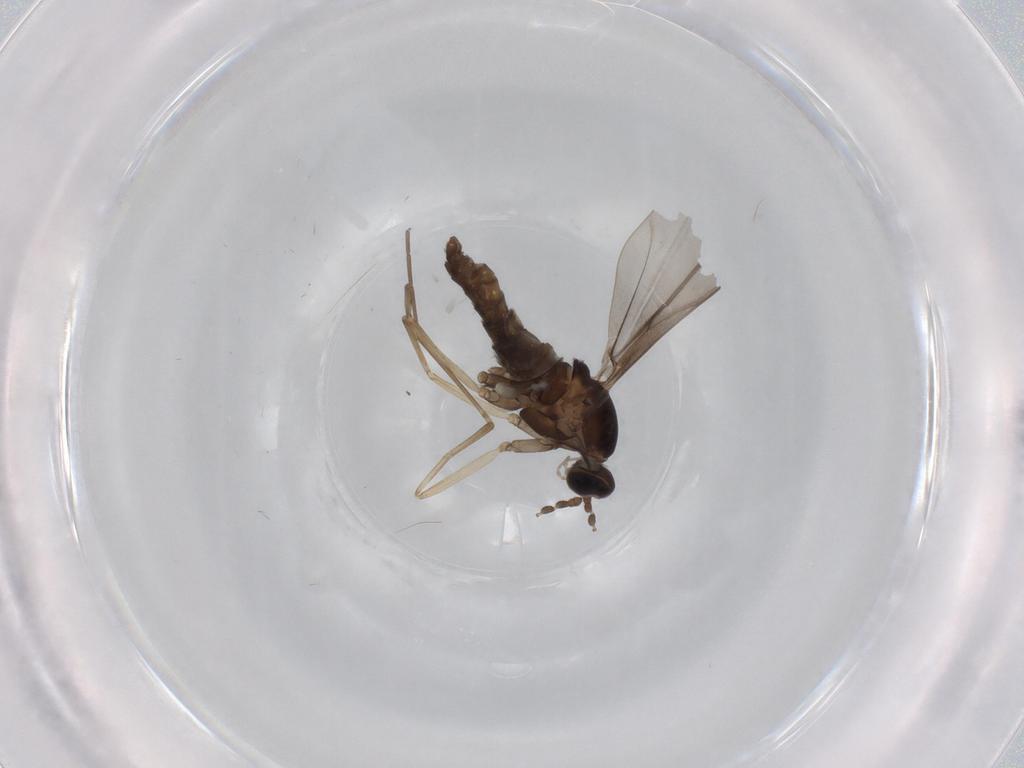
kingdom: Animalia
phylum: Arthropoda
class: Insecta
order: Diptera
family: Cecidomyiidae
